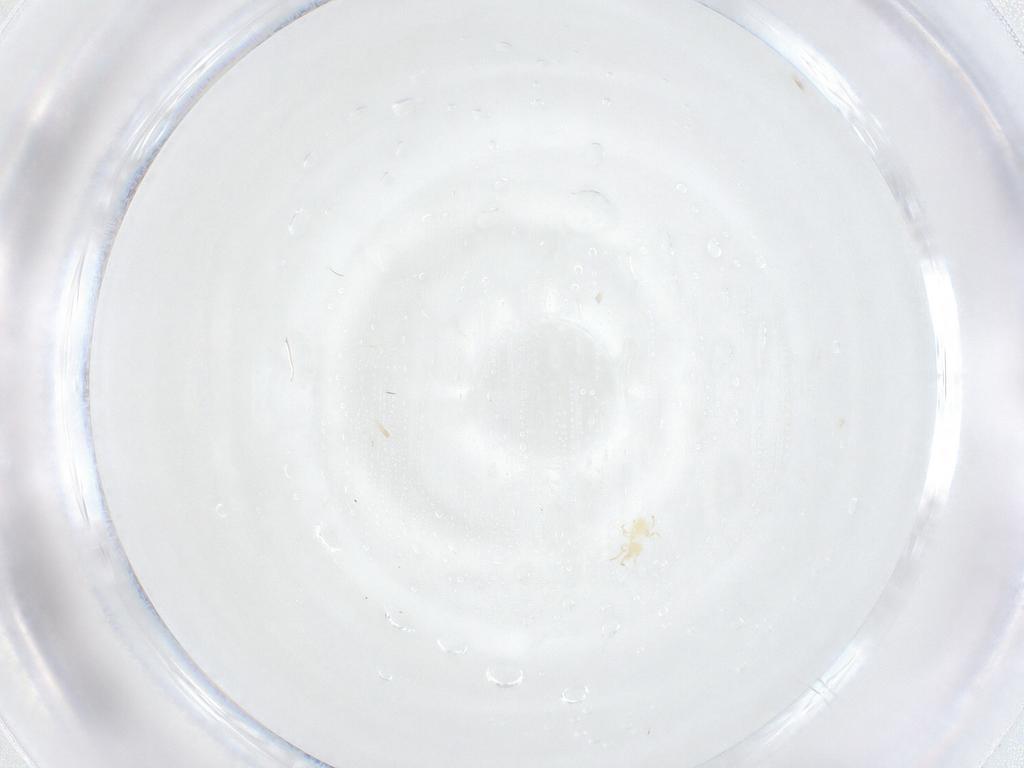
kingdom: Animalia
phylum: Arthropoda
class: Arachnida
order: Mesostigmata
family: Phytoseiidae
